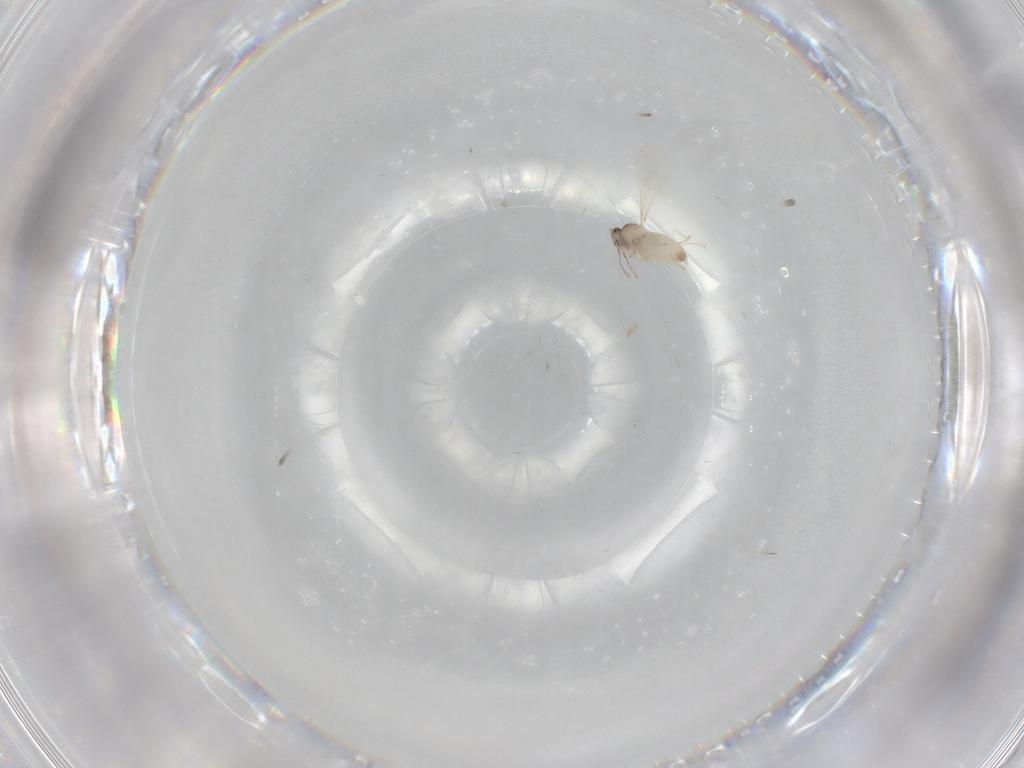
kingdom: Animalia
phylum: Arthropoda
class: Insecta
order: Diptera
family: Cecidomyiidae
